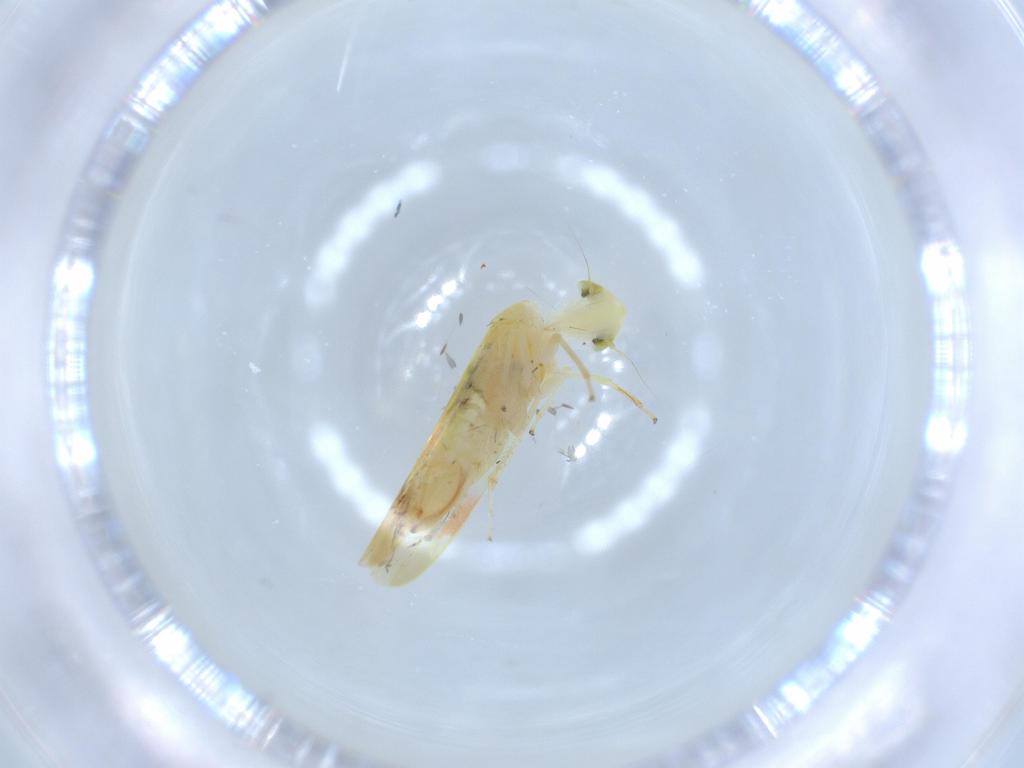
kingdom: Animalia
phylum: Arthropoda
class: Insecta
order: Hemiptera
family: Cicadellidae
